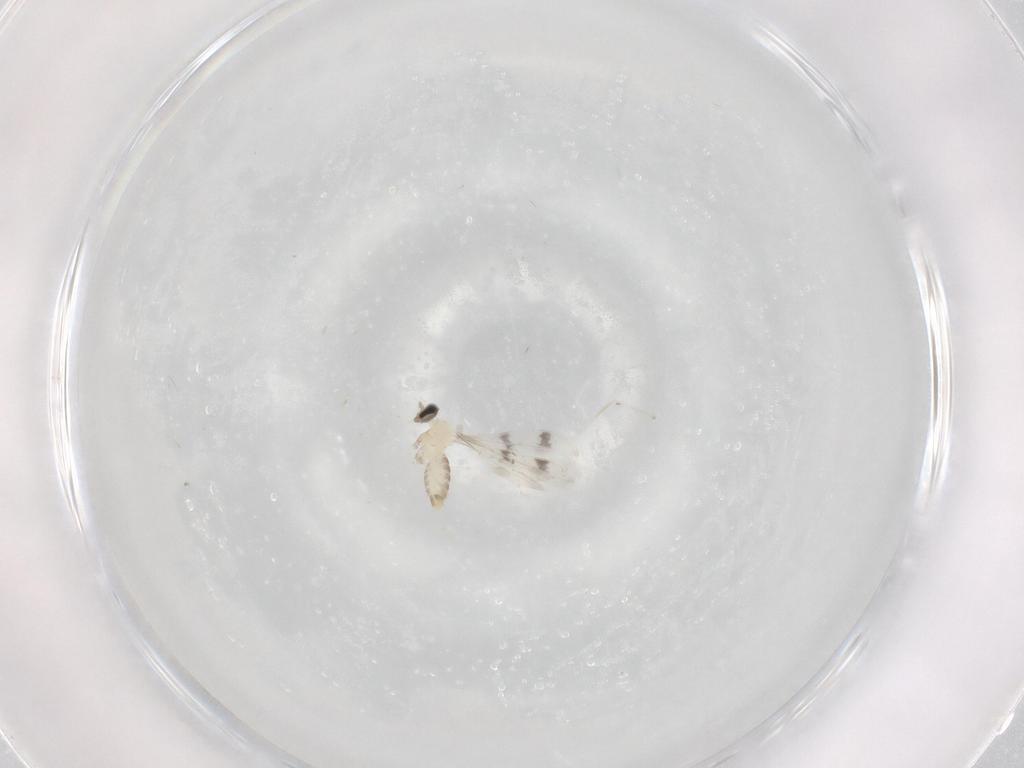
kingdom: Animalia
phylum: Arthropoda
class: Insecta
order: Diptera
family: Cecidomyiidae
